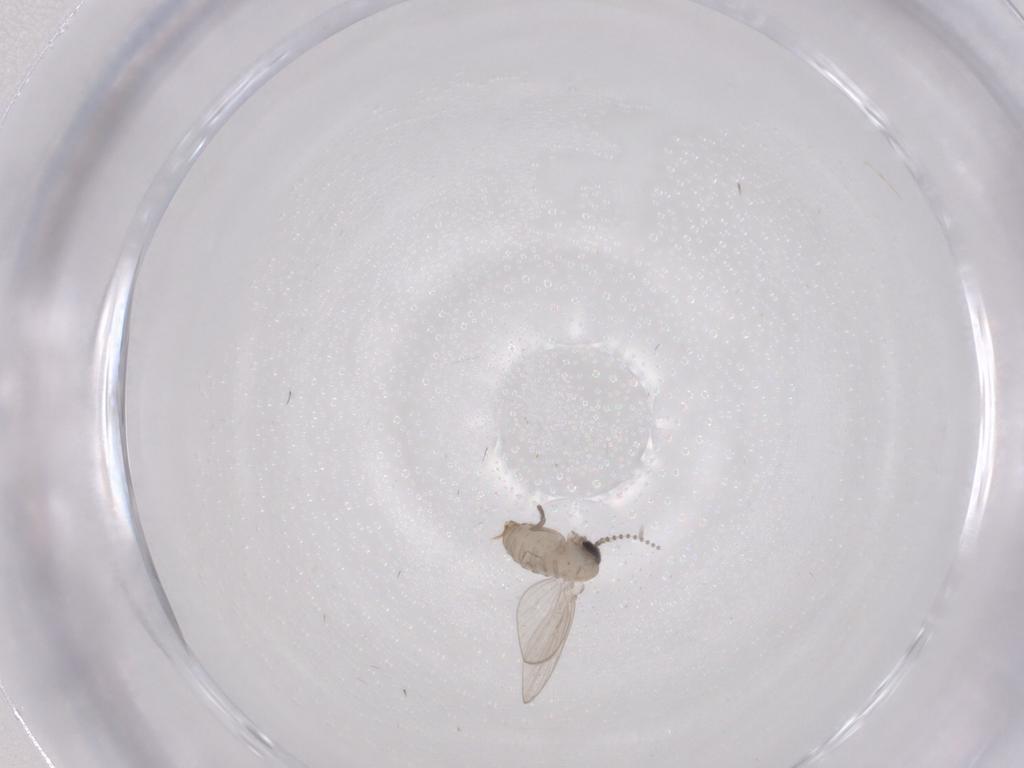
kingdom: Animalia
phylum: Arthropoda
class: Insecta
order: Diptera
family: Psychodidae
